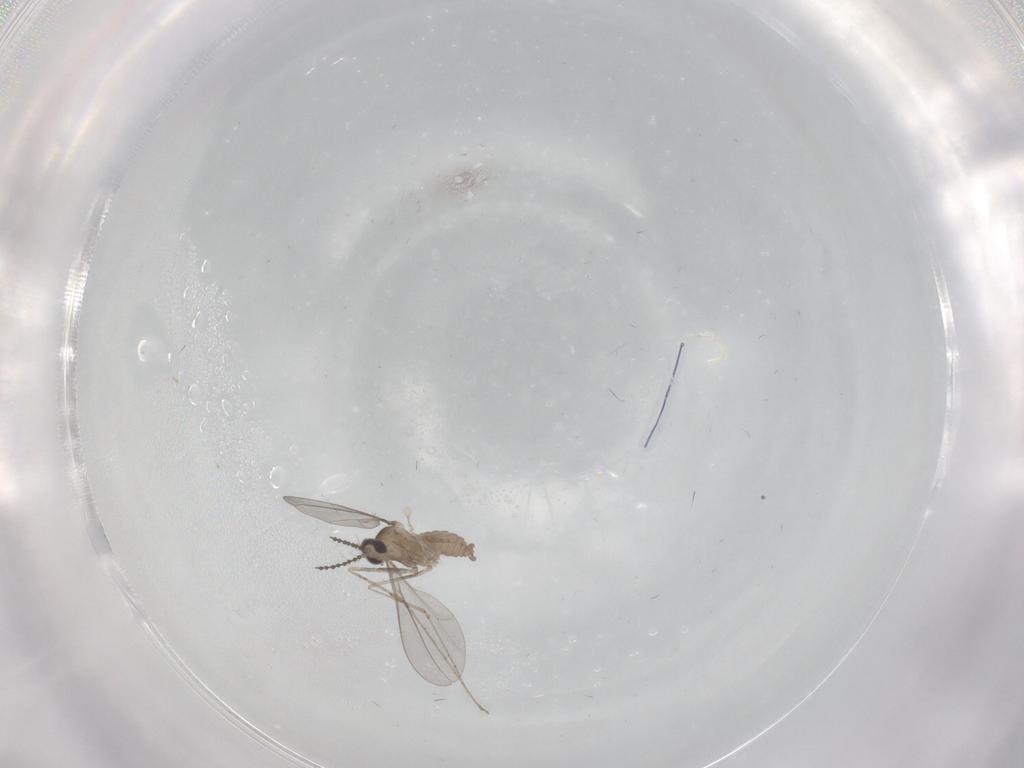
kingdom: Animalia
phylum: Arthropoda
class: Insecta
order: Diptera
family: Cecidomyiidae
